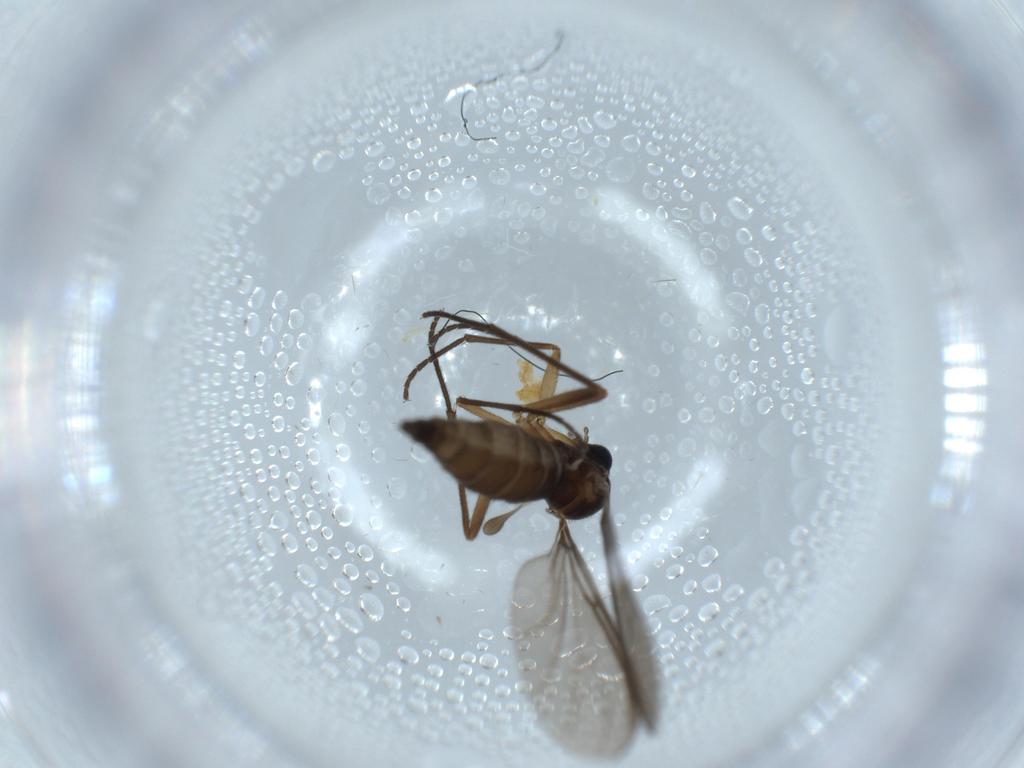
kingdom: Animalia
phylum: Arthropoda
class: Insecta
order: Diptera
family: Sciaridae
